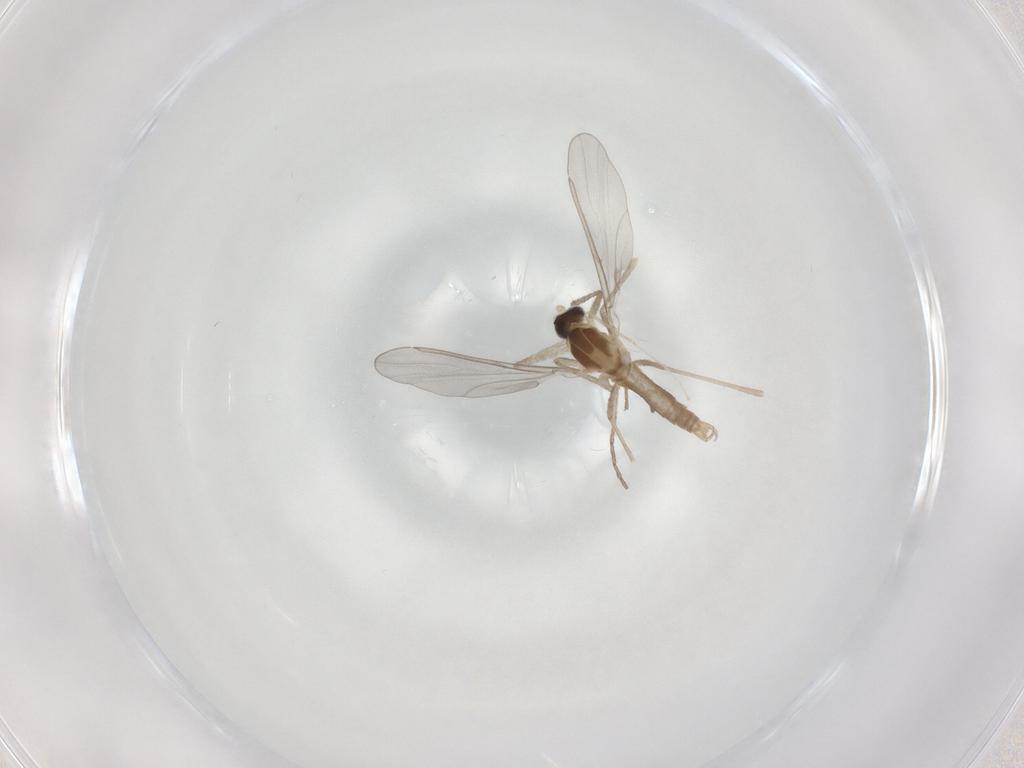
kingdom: Animalia
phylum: Arthropoda
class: Insecta
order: Diptera
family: Cecidomyiidae
